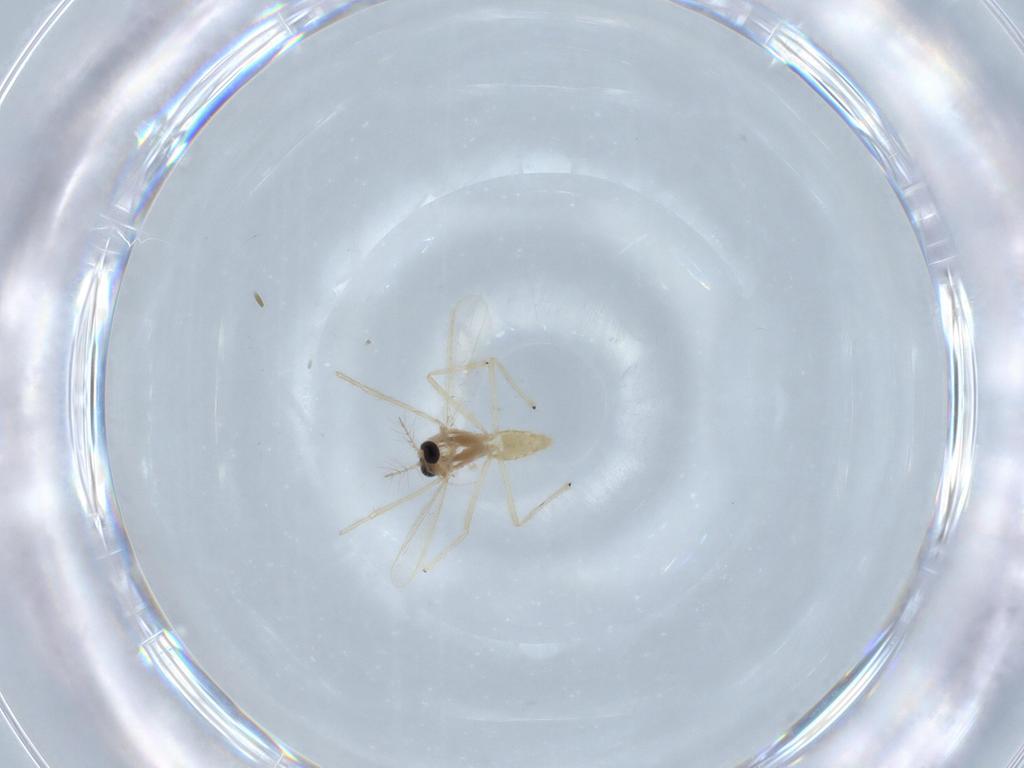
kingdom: Animalia
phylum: Arthropoda
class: Insecta
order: Diptera
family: Chironomidae
